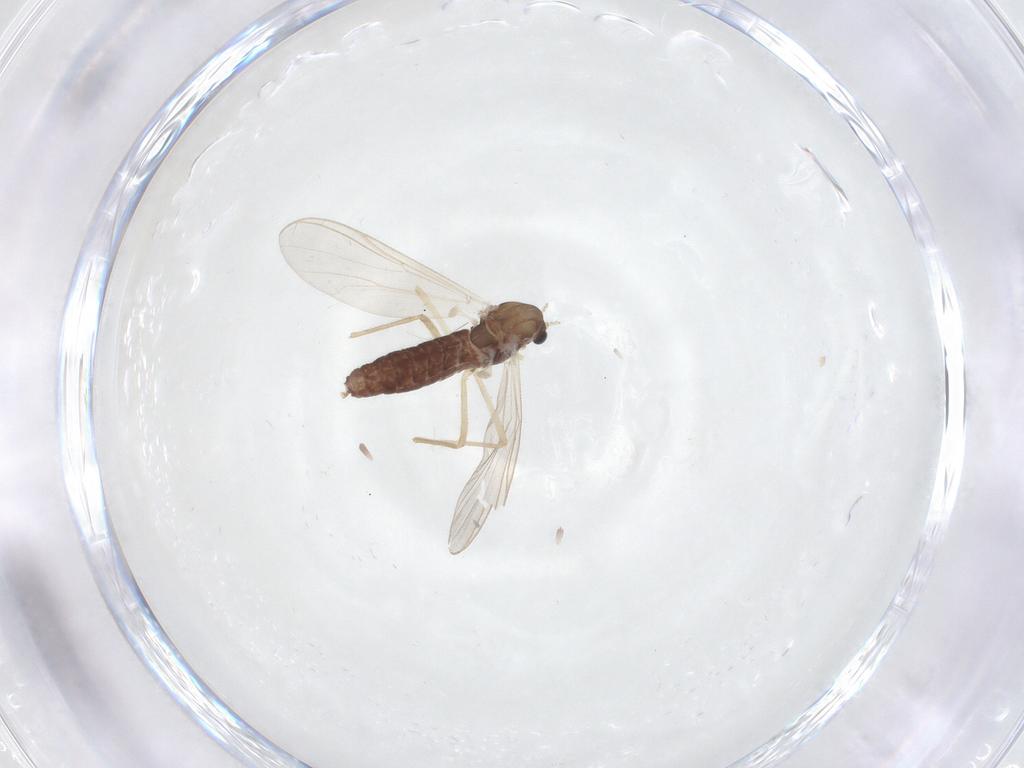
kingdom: Animalia
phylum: Arthropoda
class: Insecta
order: Diptera
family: Chironomidae
